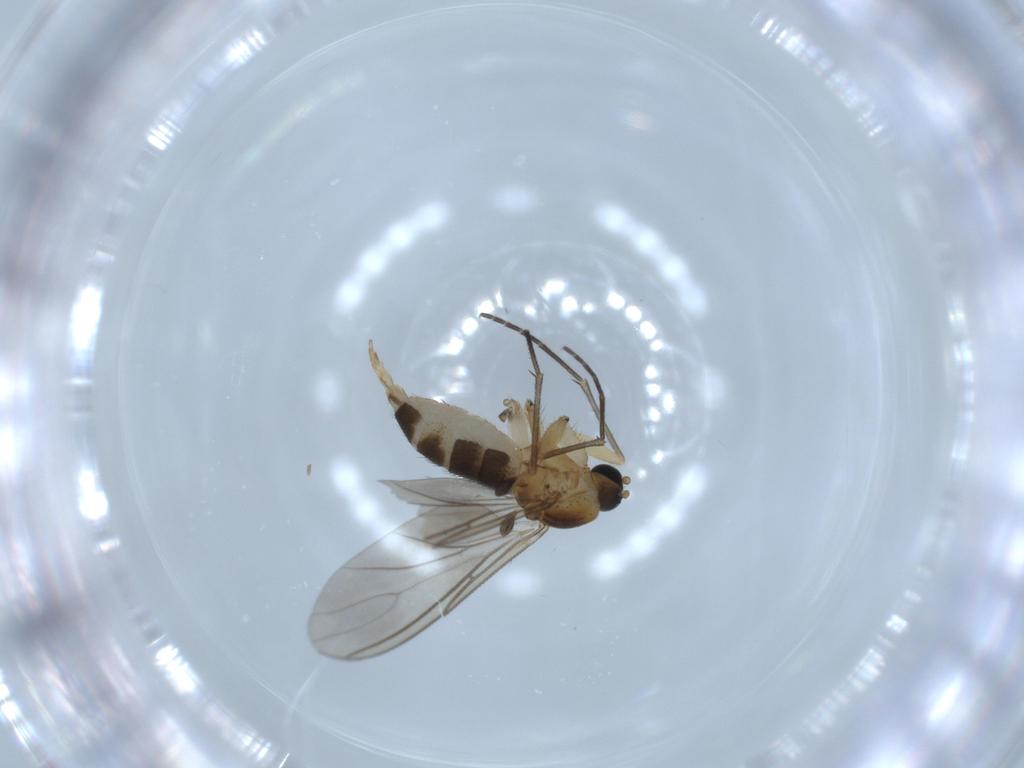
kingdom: Animalia
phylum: Arthropoda
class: Insecta
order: Diptera
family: Sciaridae
